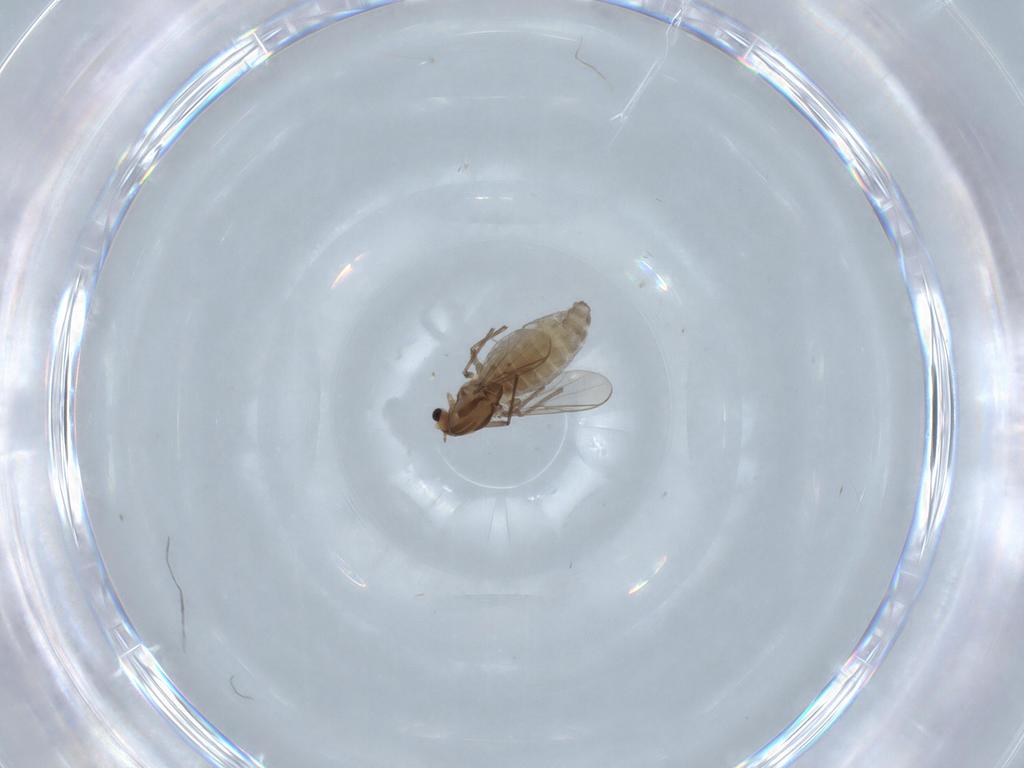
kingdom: Animalia
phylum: Arthropoda
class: Insecta
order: Diptera
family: Chironomidae
